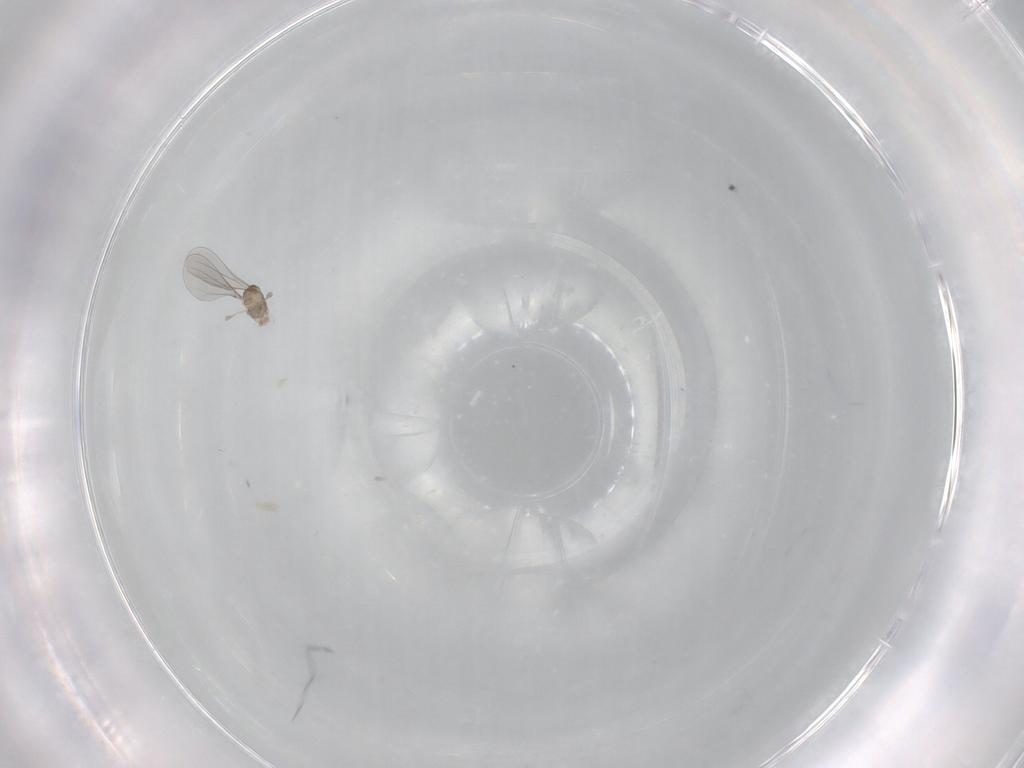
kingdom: Animalia
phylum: Arthropoda
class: Insecta
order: Diptera
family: Cecidomyiidae
